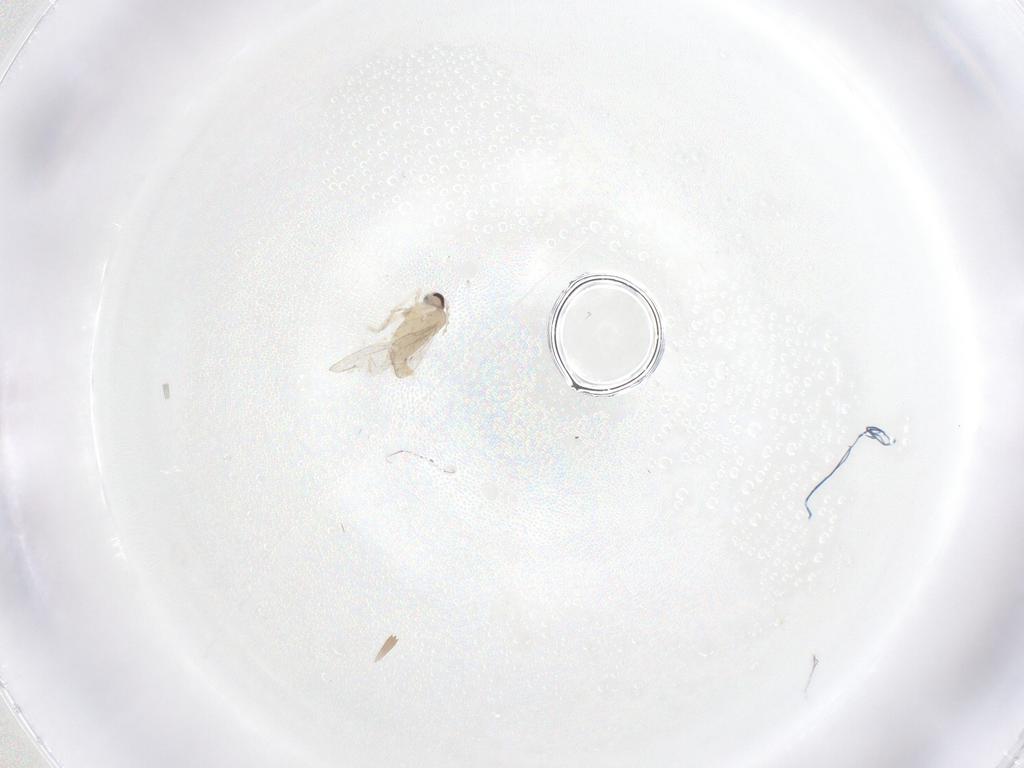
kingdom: Animalia
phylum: Arthropoda
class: Insecta
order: Diptera
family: Cecidomyiidae
